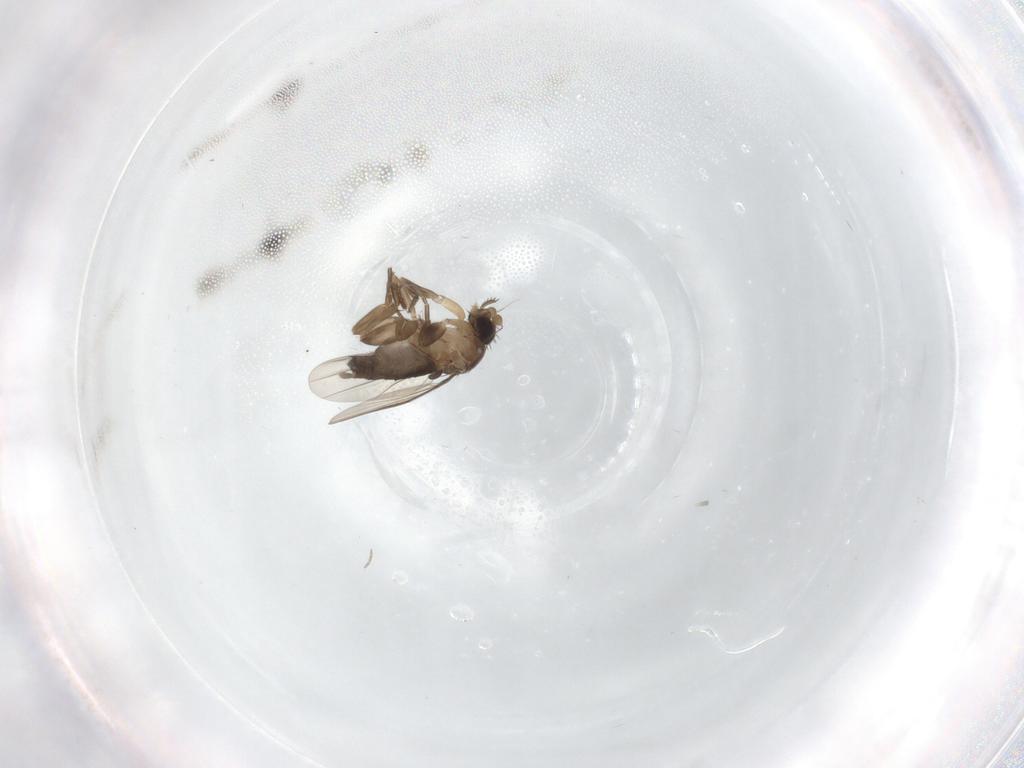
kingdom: Animalia
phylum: Arthropoda
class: Insecta
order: Diptera
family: Phoridae
